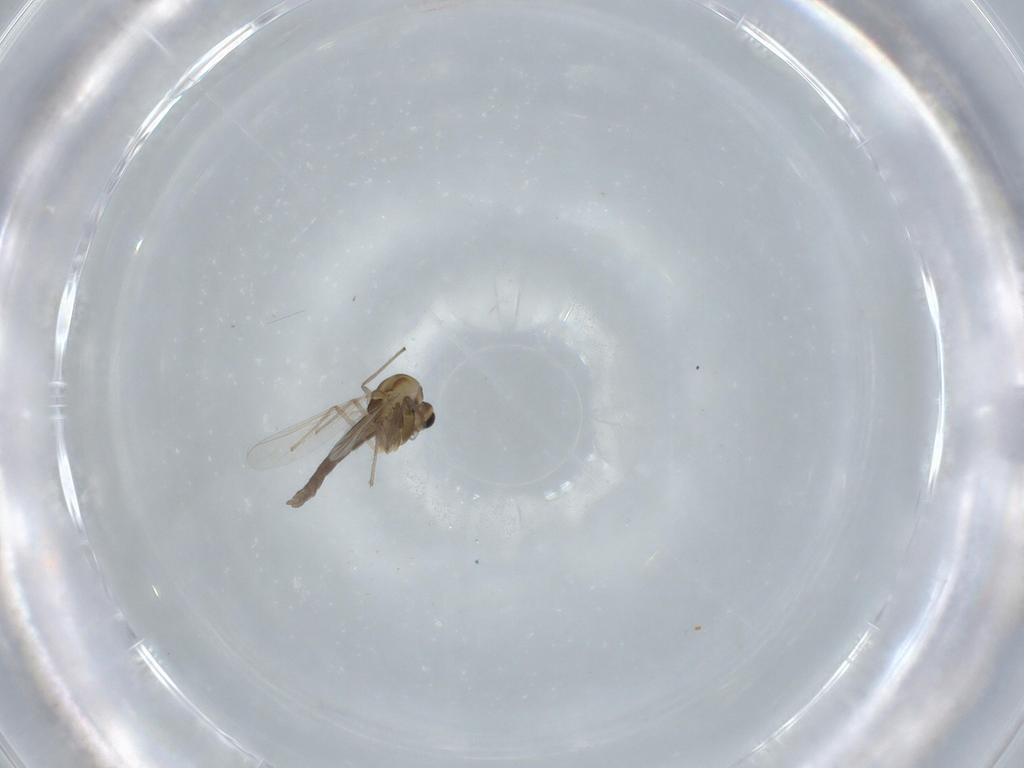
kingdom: Animalia
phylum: Arthropoda
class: Insecta
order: Diptera
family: Sciaridae
